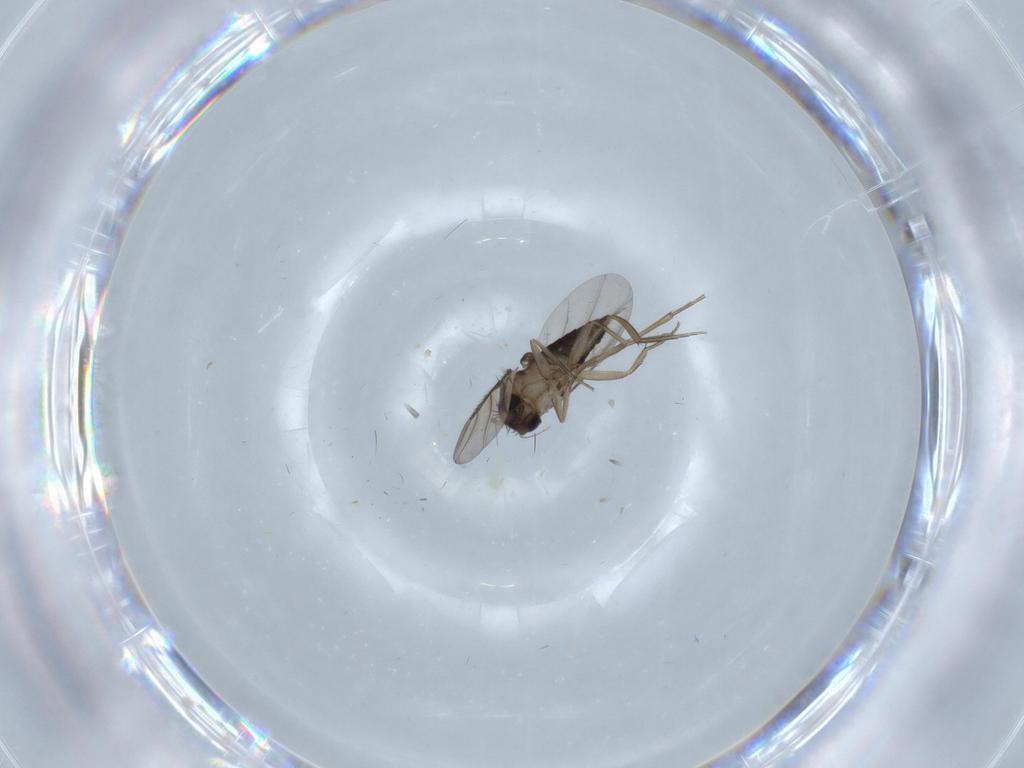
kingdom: Animalia
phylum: Arthropoda
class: Insecta
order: Diptera
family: Phoridae
